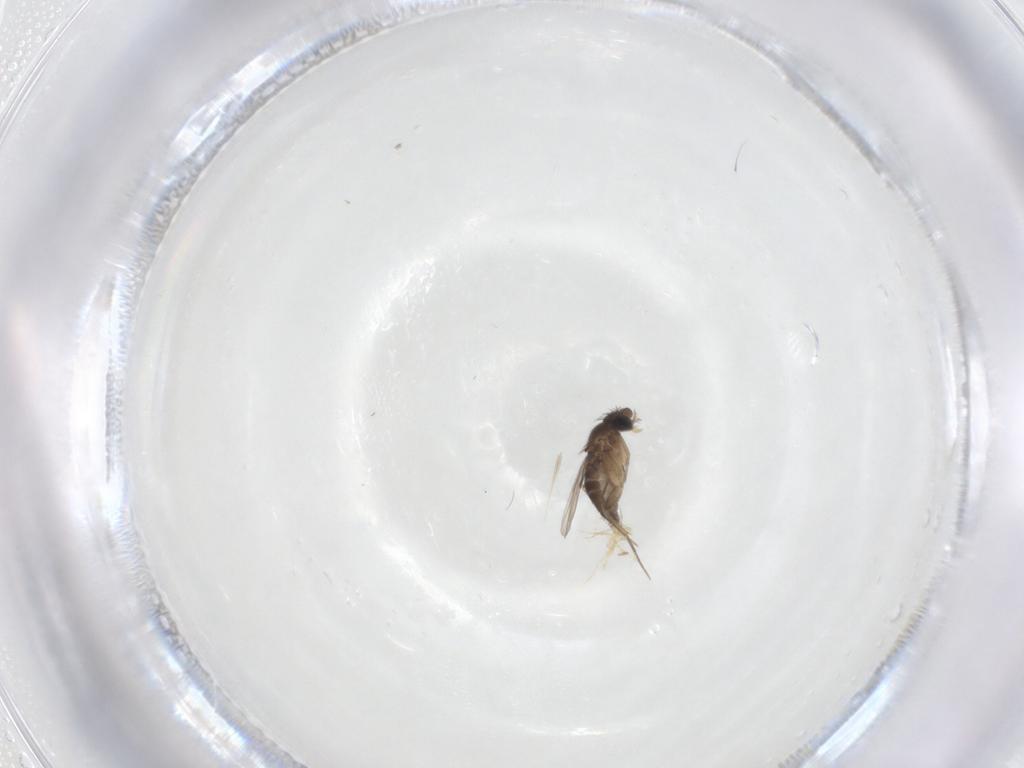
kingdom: Animalia
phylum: Arthropoda
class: Insecta
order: Diptera
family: Phoridae
